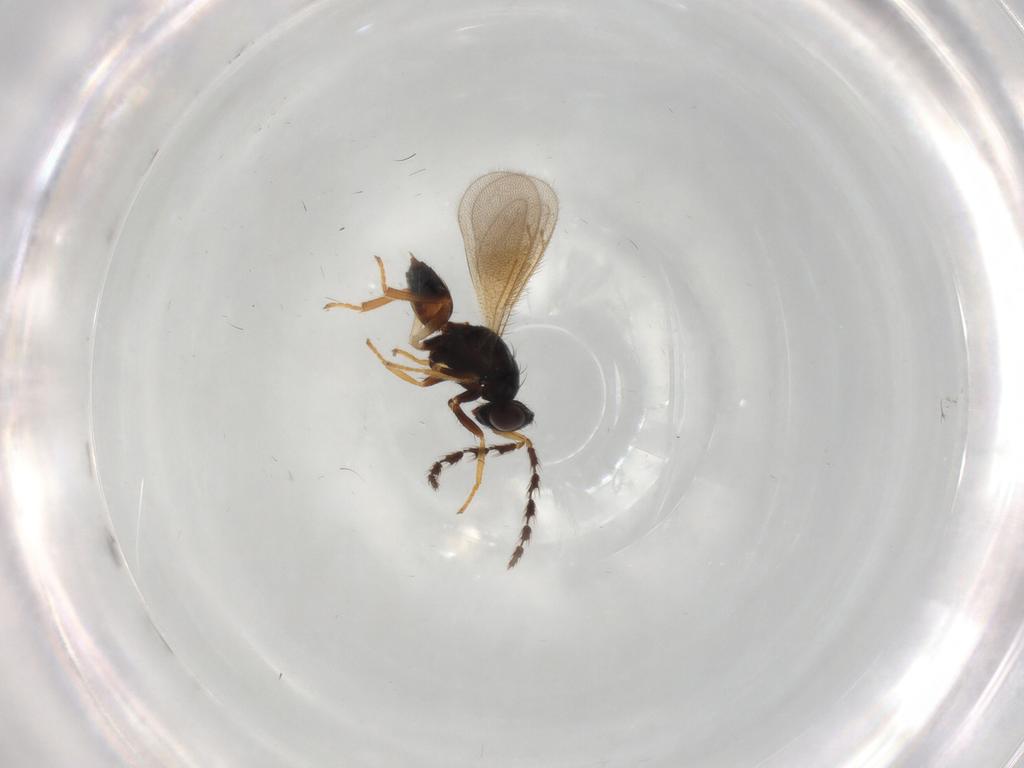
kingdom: Animalia
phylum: Arthropoda
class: Insecta
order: Hymenoptera
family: Eulophidae
